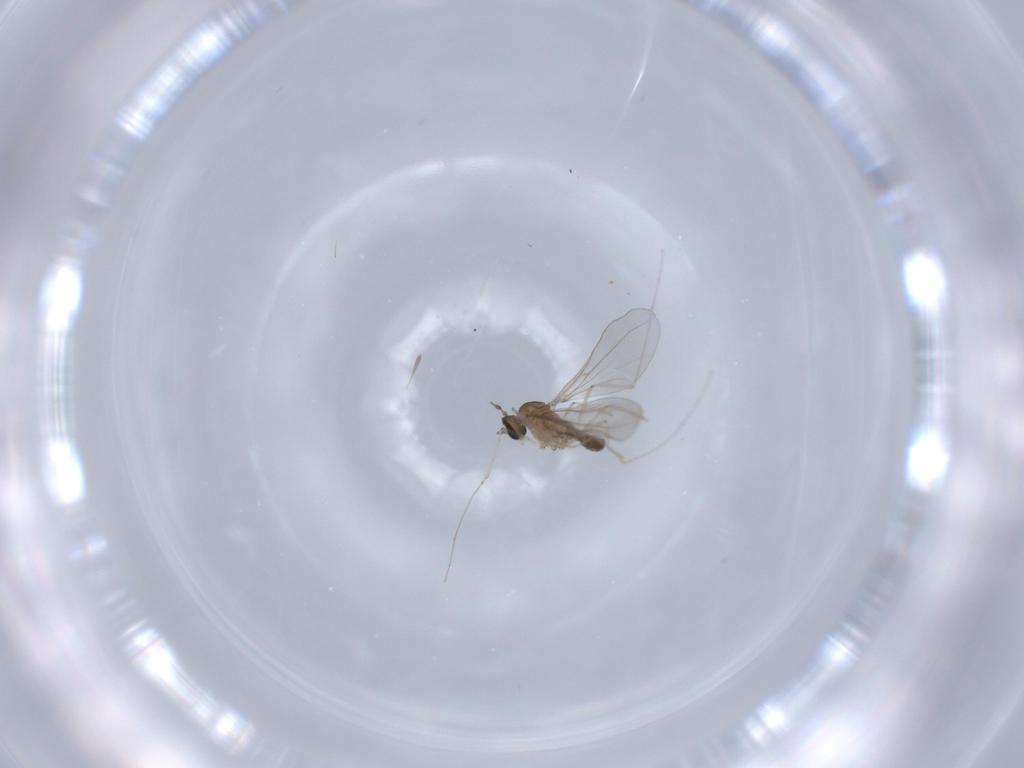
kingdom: Animalia
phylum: Arthropoda
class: Insecta
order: Diptera
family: Cecidomyiidae
